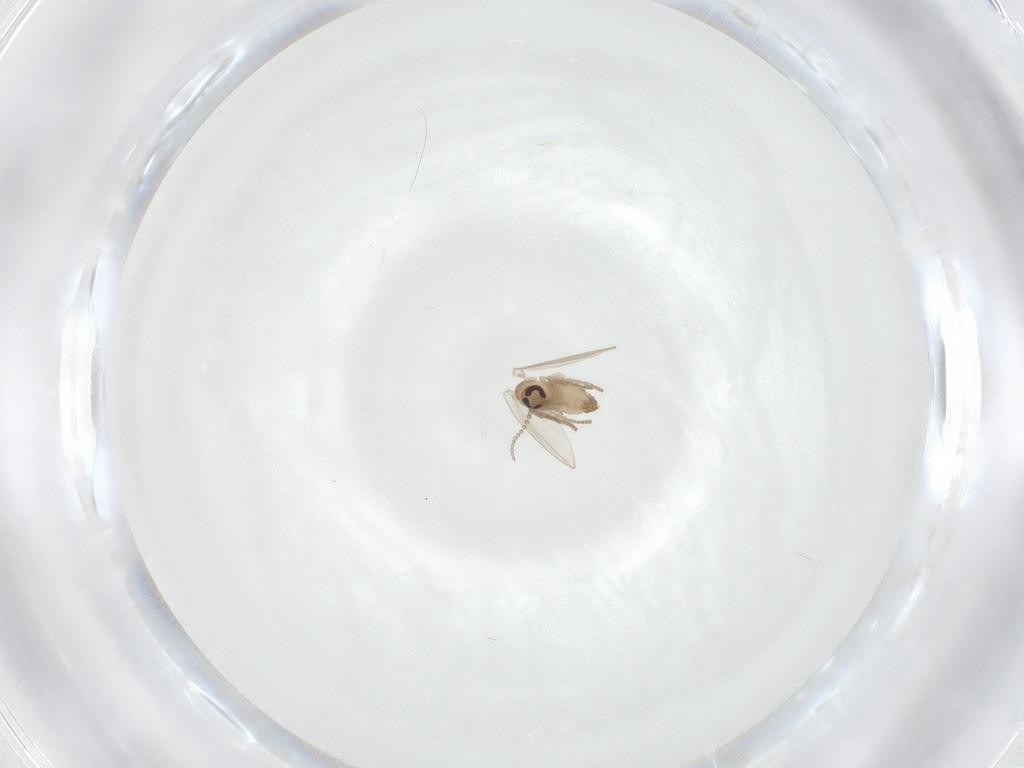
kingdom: Animalia
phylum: Arthropoda
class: Insecta
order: Diptera
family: Psychodidae
